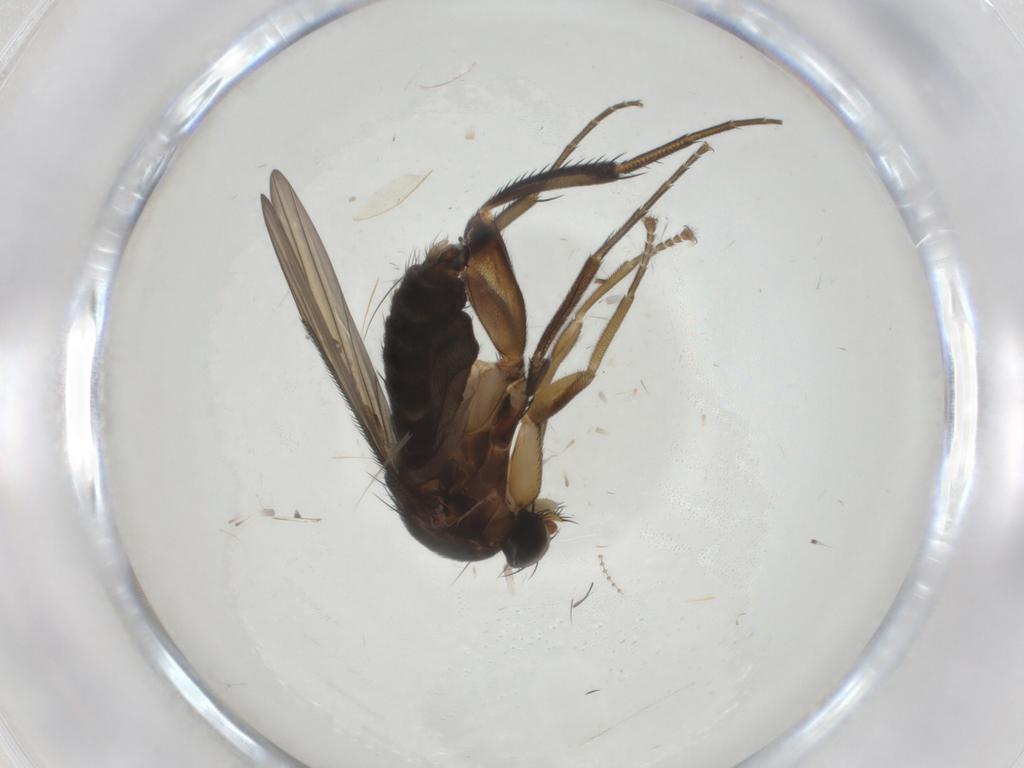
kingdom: Animalia
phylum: Arthropoda
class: Insecta
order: Diptera
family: Phoridae
